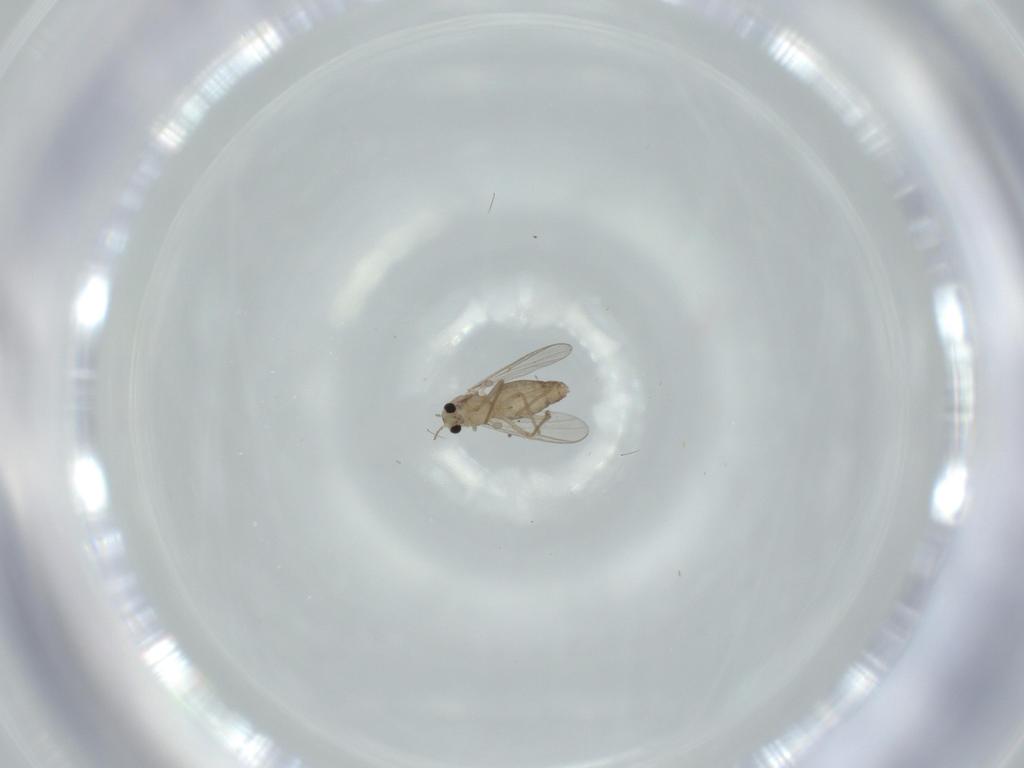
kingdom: Animalia
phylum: Arthropoda
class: Insecta
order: Diptera
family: Chironomidae
